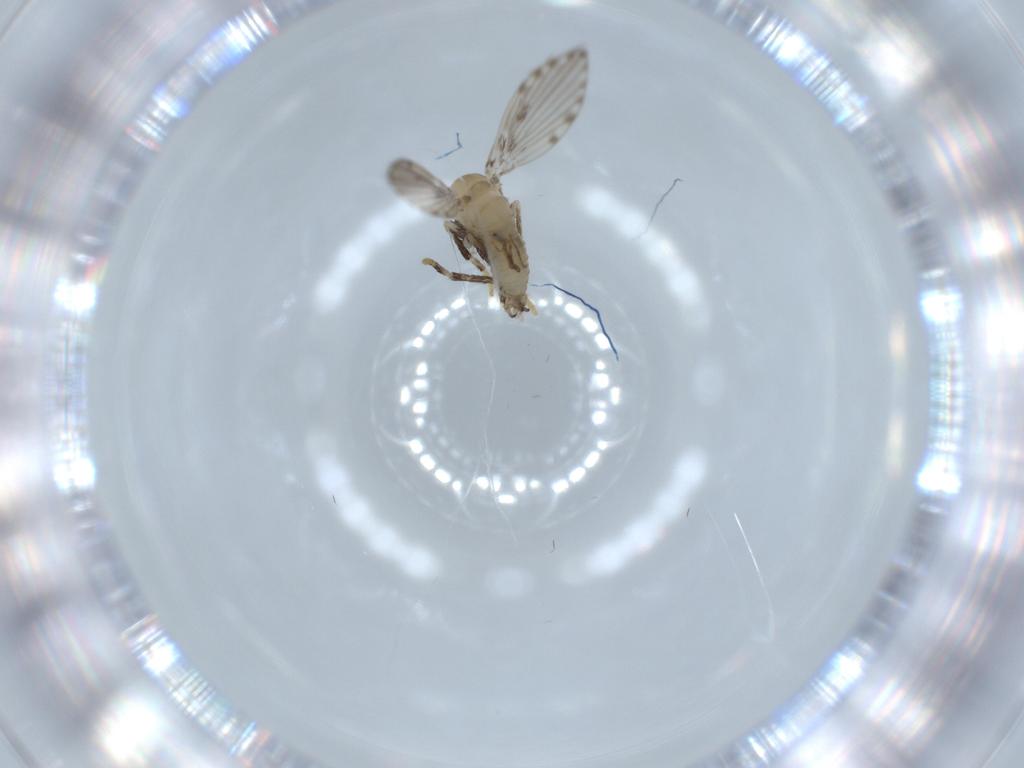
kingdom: Animalia
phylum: Arthropoda
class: Insecta
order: Diptera
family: Psychodidae
